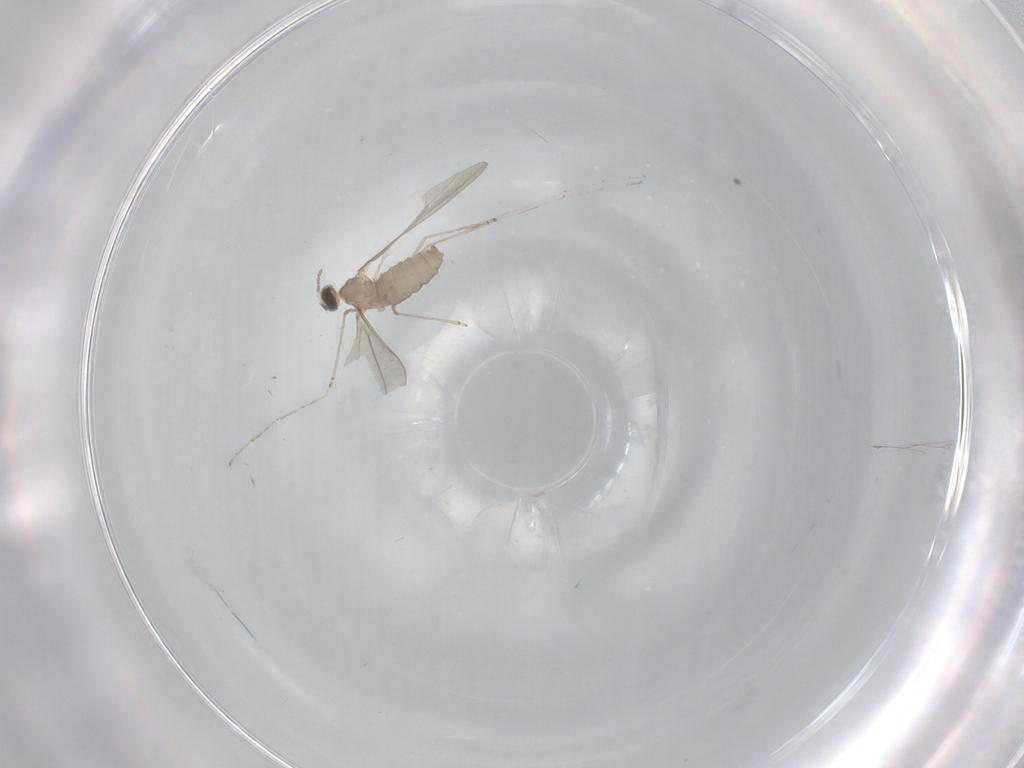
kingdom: Animalia
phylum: Arthropoda
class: Insecta
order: Diptera
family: Cecidomyiidae
